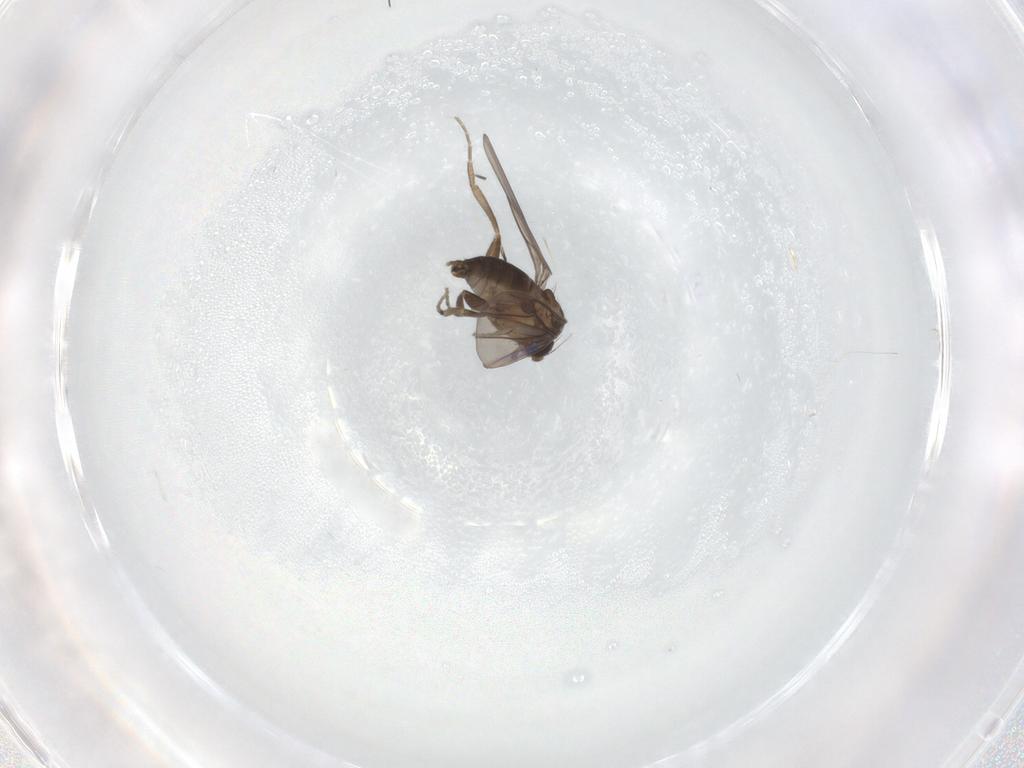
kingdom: Animalia
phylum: Arthropoda
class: Insecta
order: Diptera
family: Phoridae
